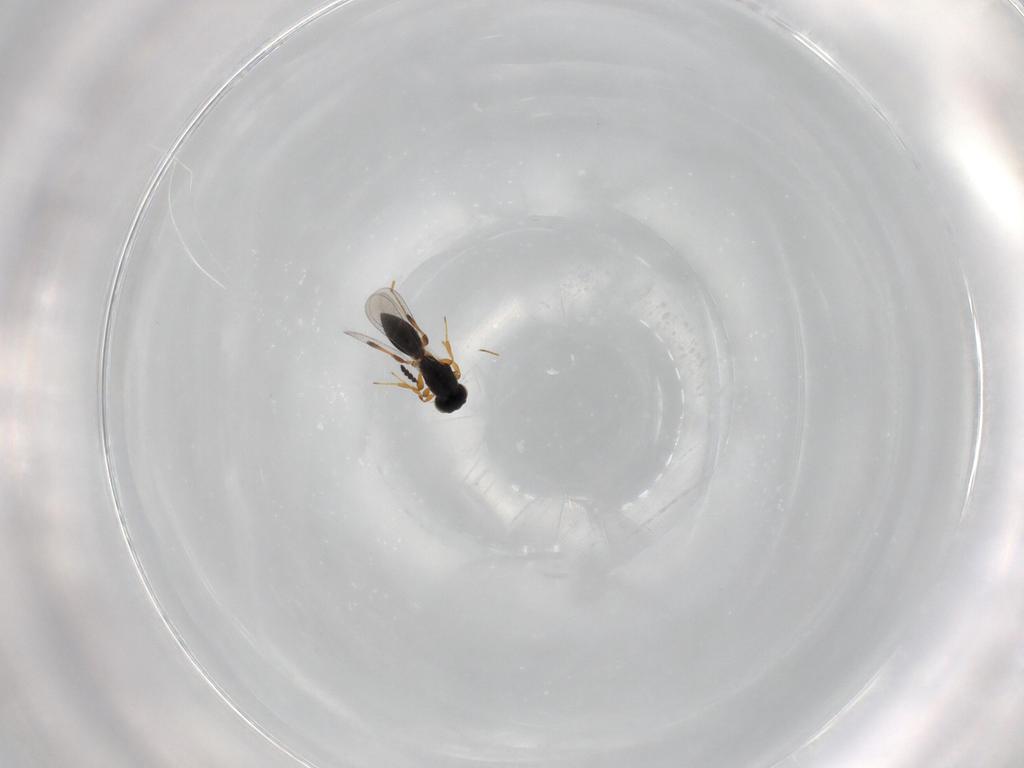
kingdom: Animalia
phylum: Arthropoda
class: Insecta
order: Hymenoptera
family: Platygastridae
